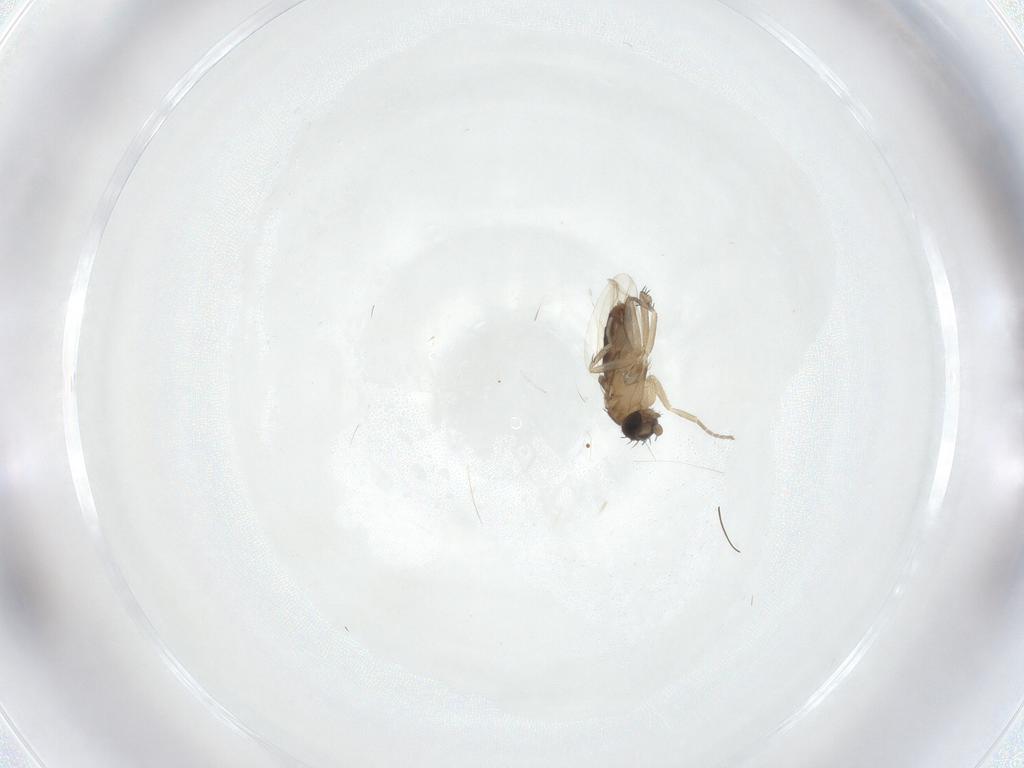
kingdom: Animalia
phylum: Arthropoda
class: Insecta
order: Diptera
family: Phoridae
